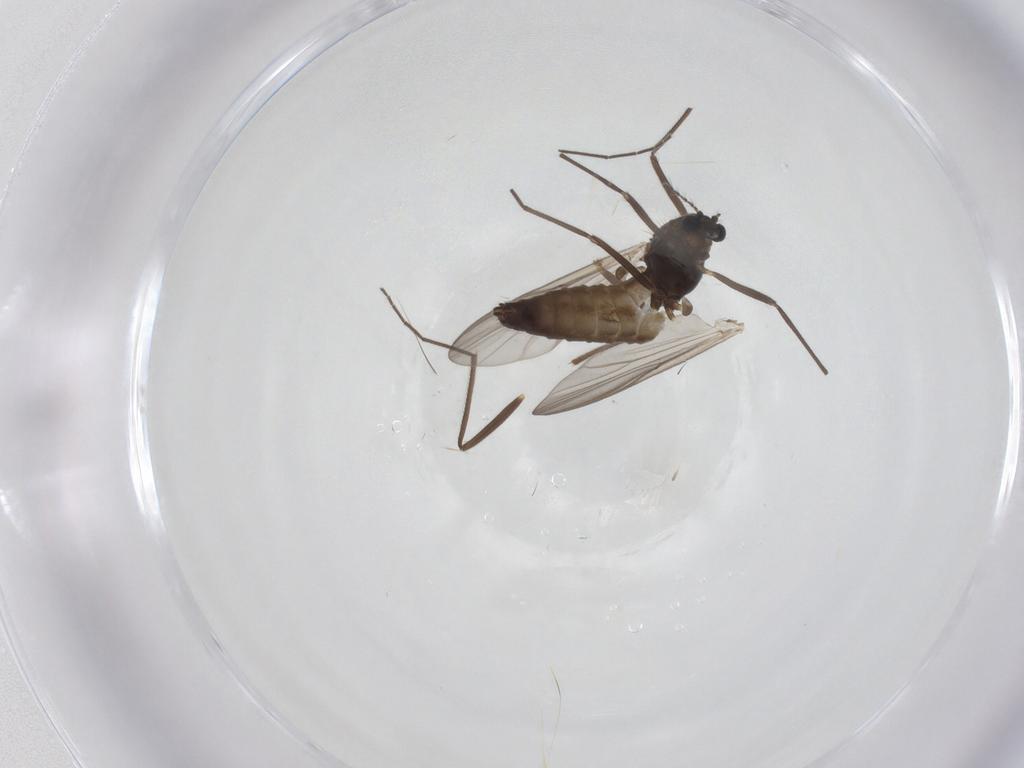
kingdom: Animalia
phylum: Arthropoda
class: Insecta
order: Diptera
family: Chironomidae
